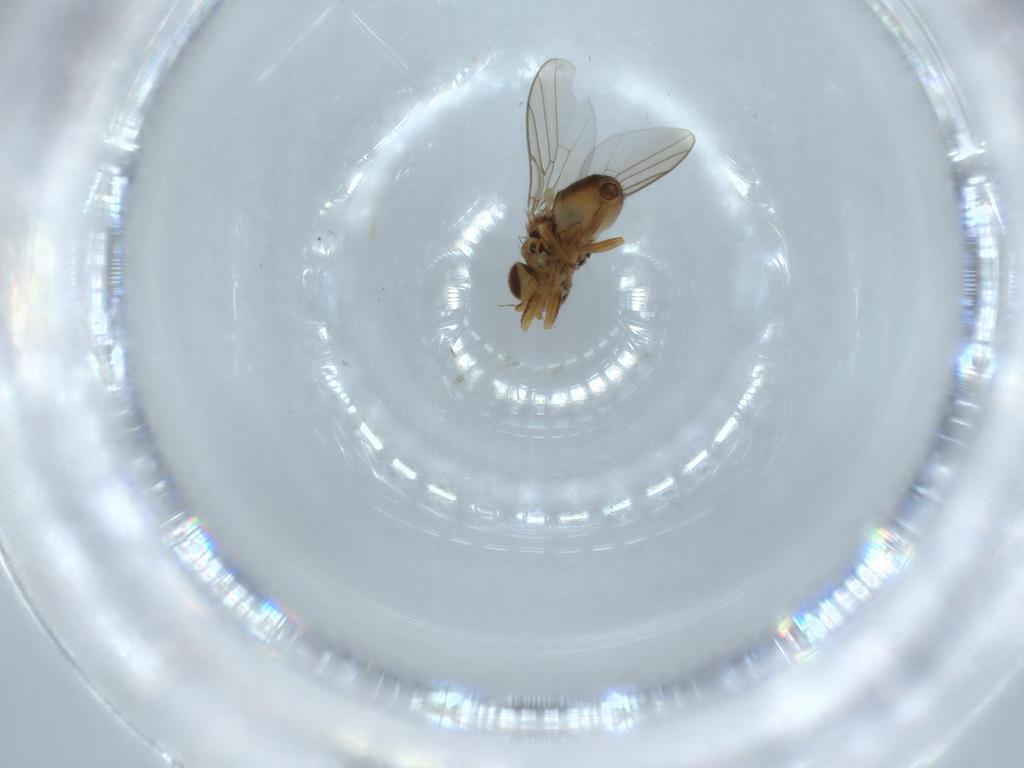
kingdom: Animalia
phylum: Arthropoda
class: Insecta
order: Diptera
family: Chloropidae
